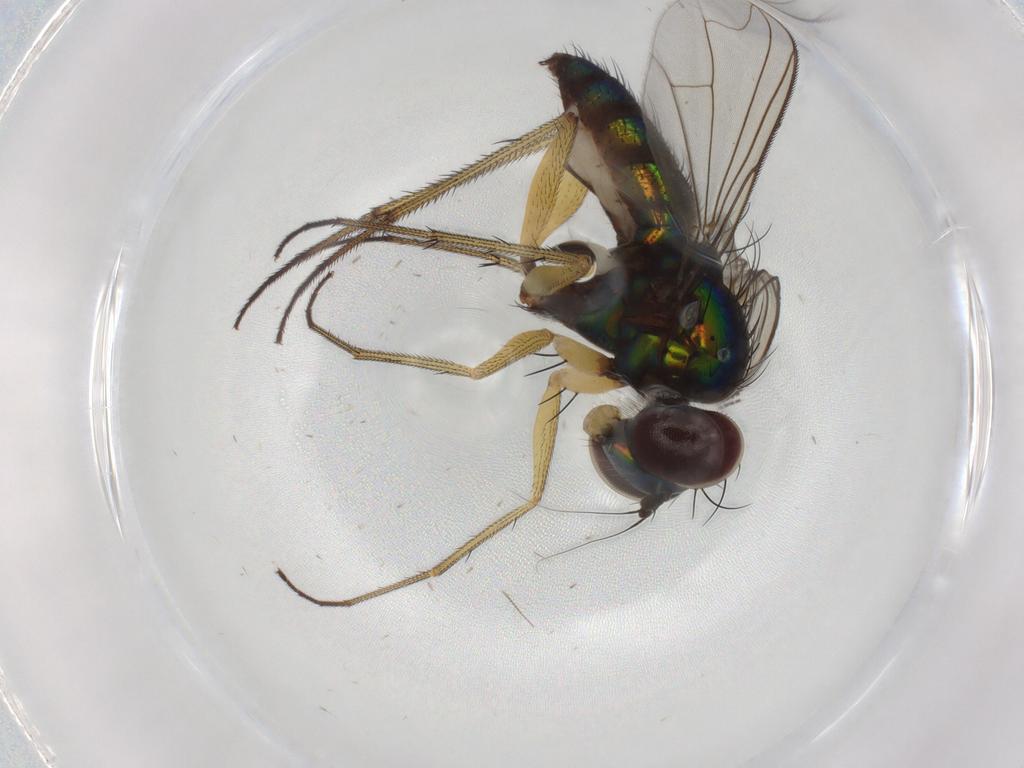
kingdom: Animalia
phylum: Arthropoda
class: Insecta
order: Diptera
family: Dolichopodidae
